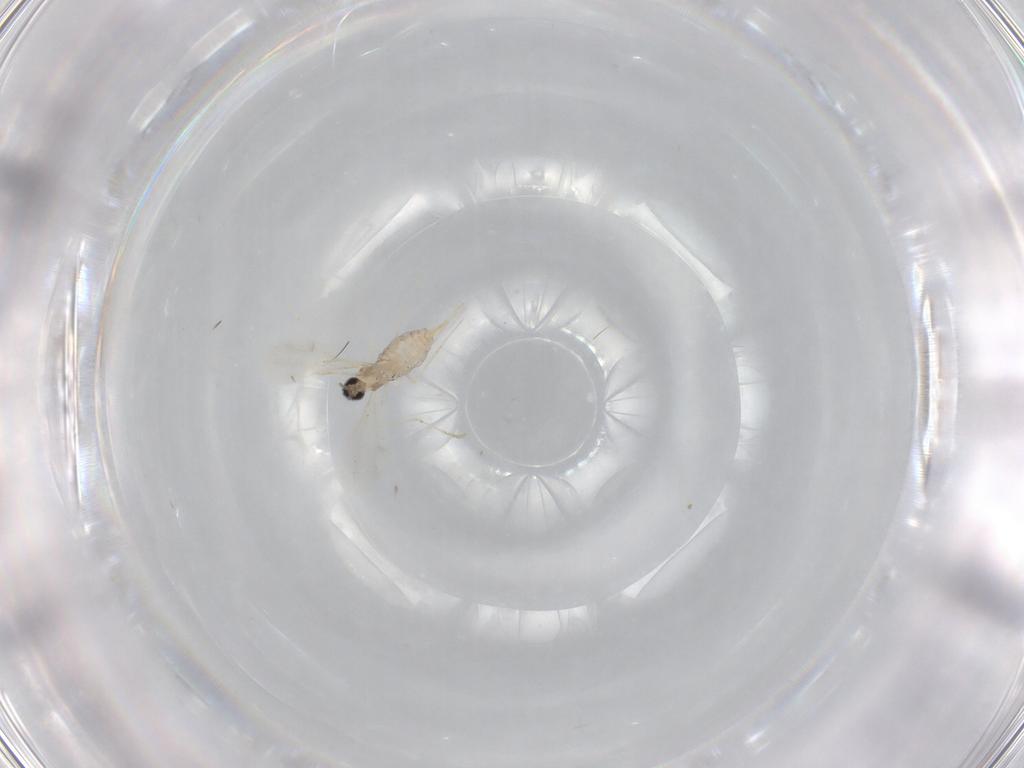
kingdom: Animalia
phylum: Arthropoda
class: Insecta
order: Diptera
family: Cecidomyiidae
